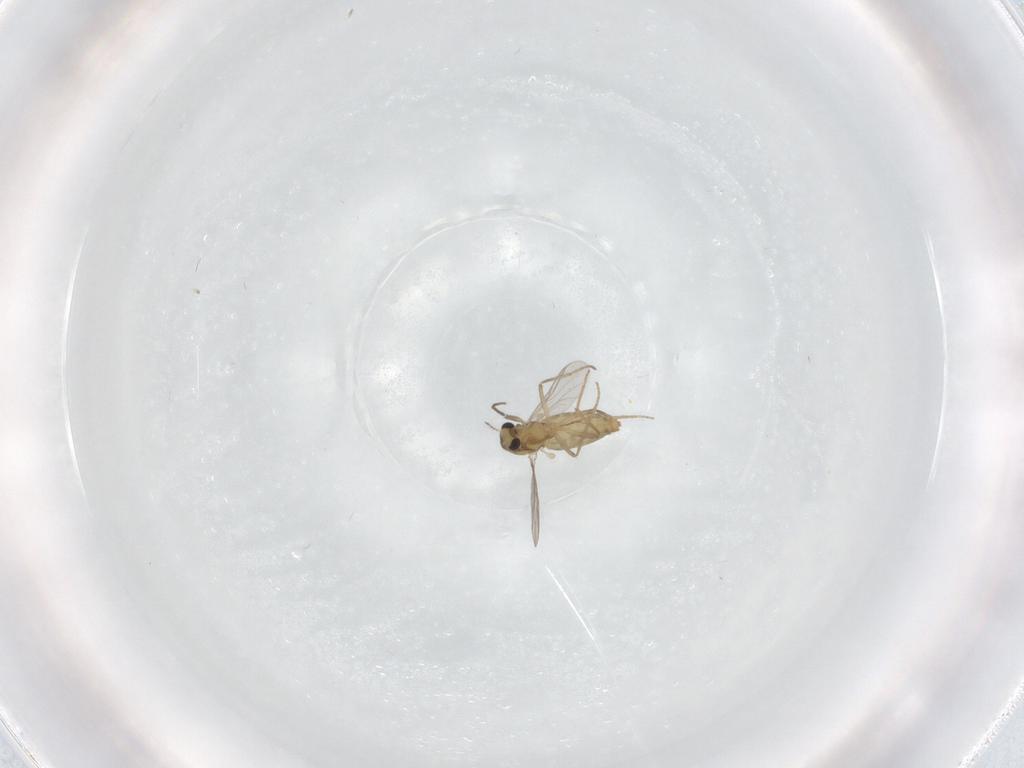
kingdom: Animalia
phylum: Arthropoda
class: Insecta
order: Diptera
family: Chironomidae
